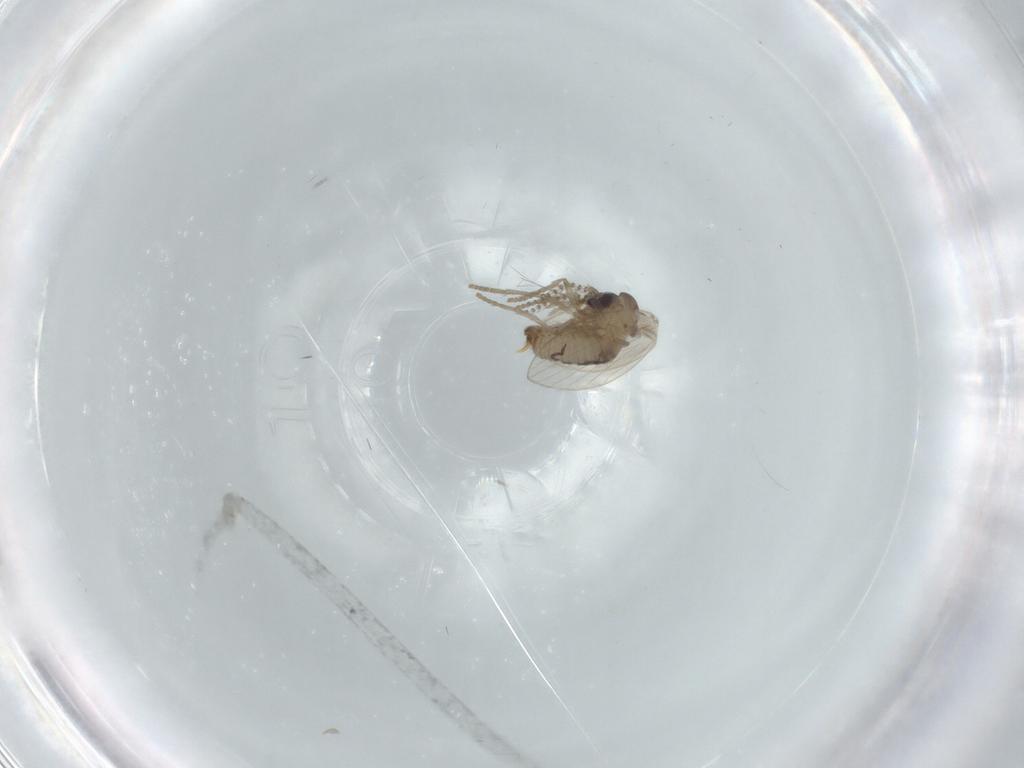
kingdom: Animalia
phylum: Arthropoda
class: Insecta
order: Diptera
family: Psychodidae
